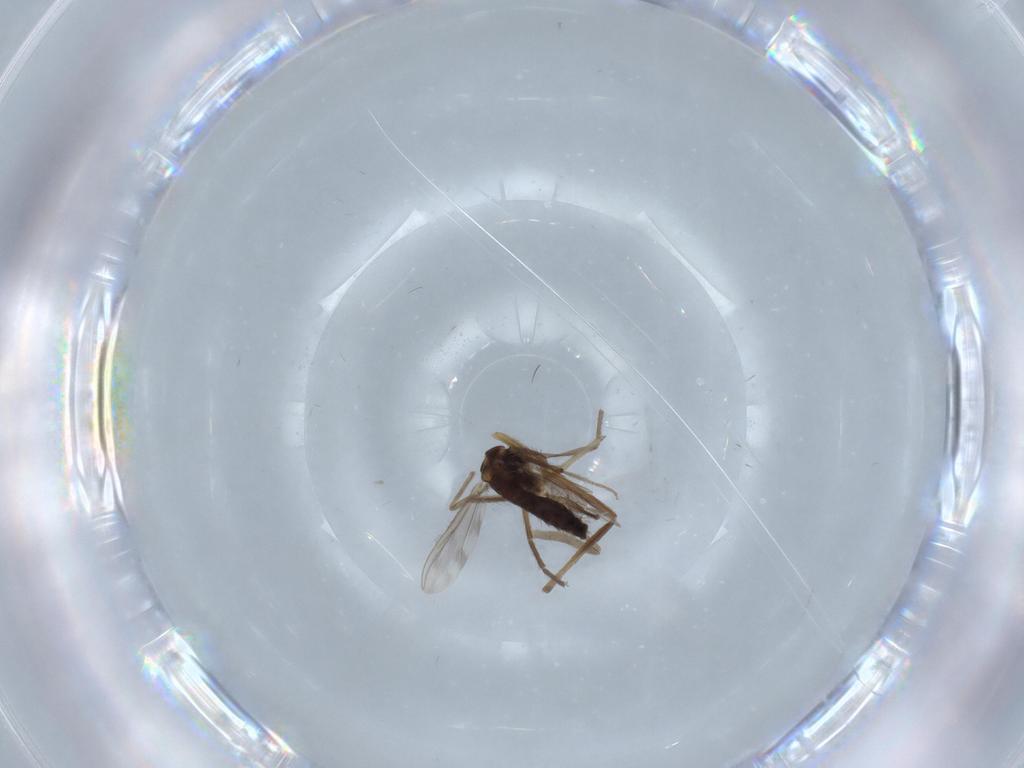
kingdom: Animalia
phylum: Arthropoda
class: Insecta
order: Diptera
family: Chironomidae
